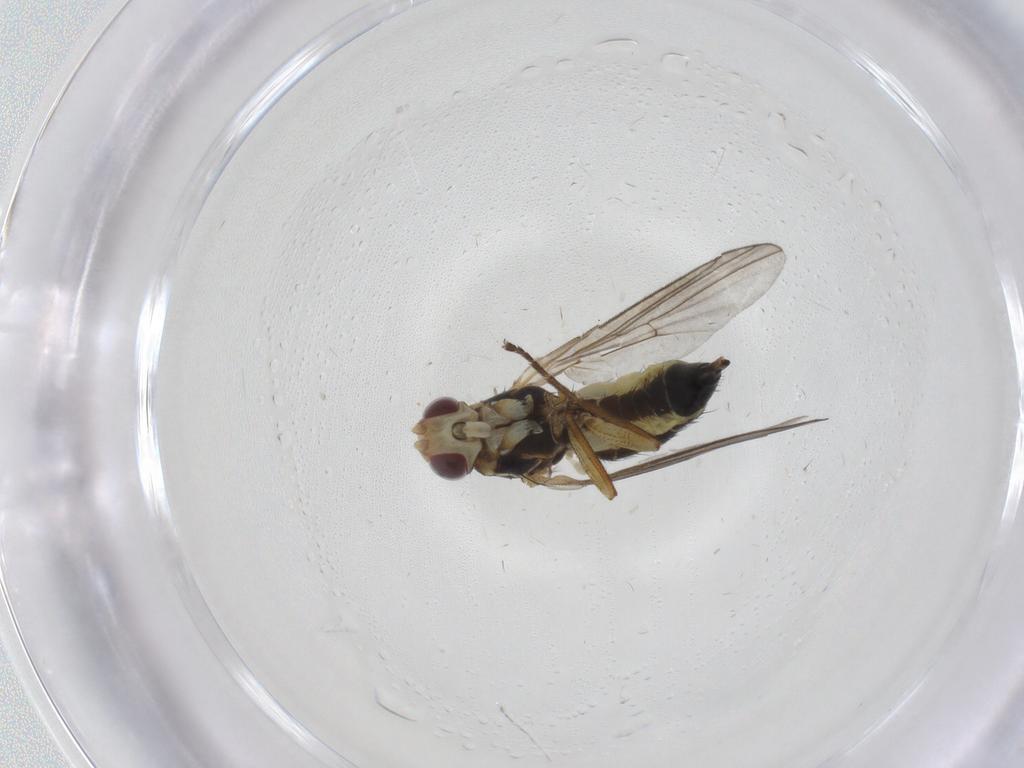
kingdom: Animalia
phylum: Arthropoda
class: Insecta
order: Diptera
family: Agromyzidae
